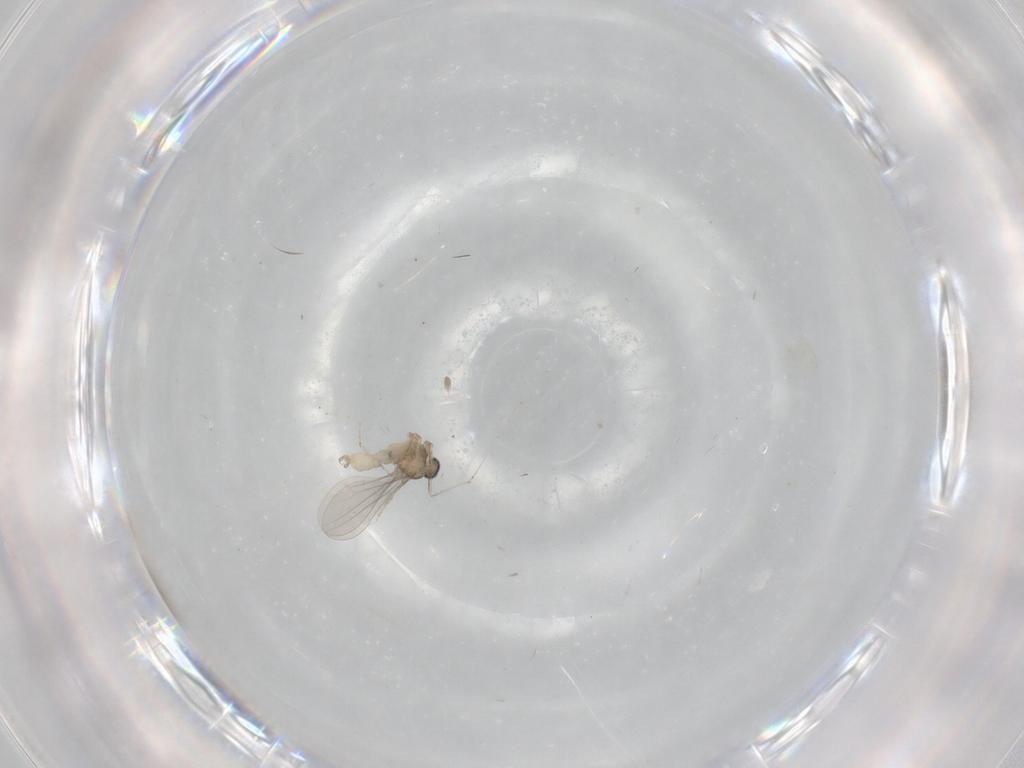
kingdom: Animalia
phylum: Arthropoda
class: Insecta
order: Diptera
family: Cecidomyiidae
